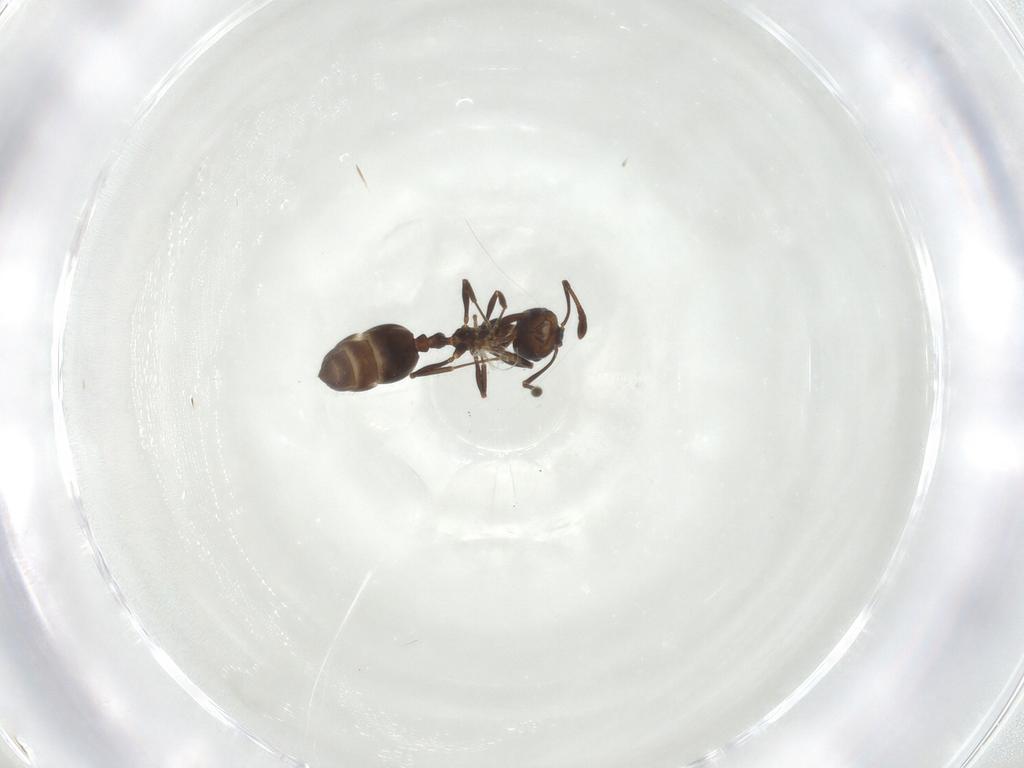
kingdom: Animalia
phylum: Arthropoda
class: Insecta
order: Hymenoptera
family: Formicidae
